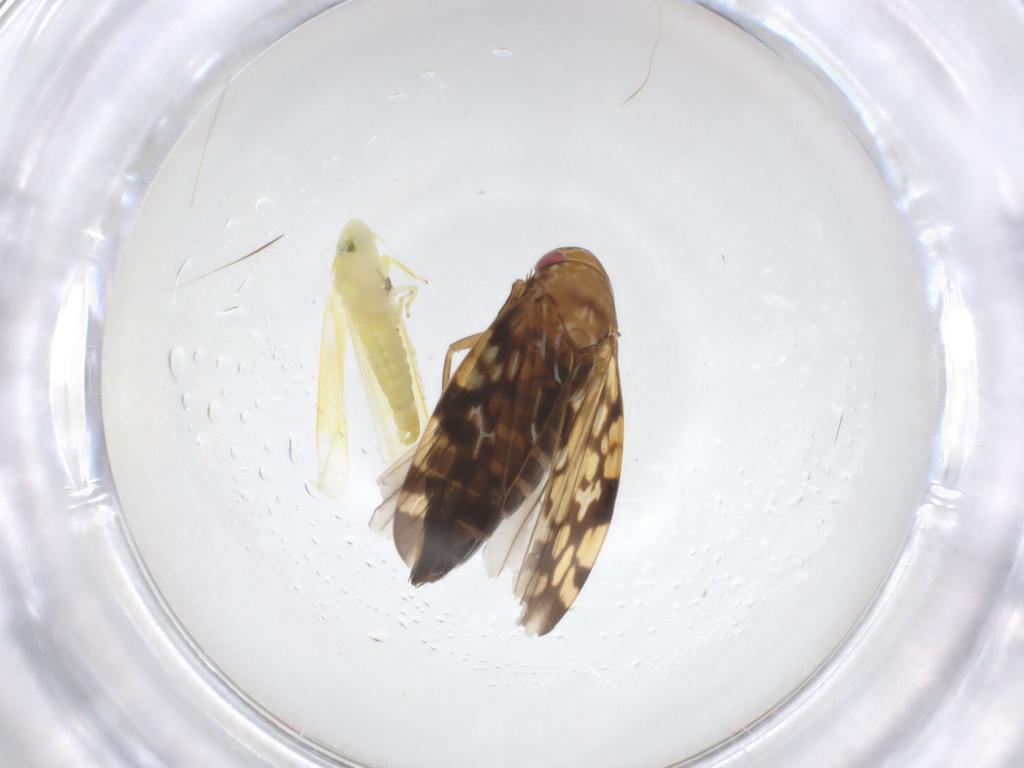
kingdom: Animalia
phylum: Arthropoda
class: Insecta
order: Hemiptera
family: Cicadellidae
